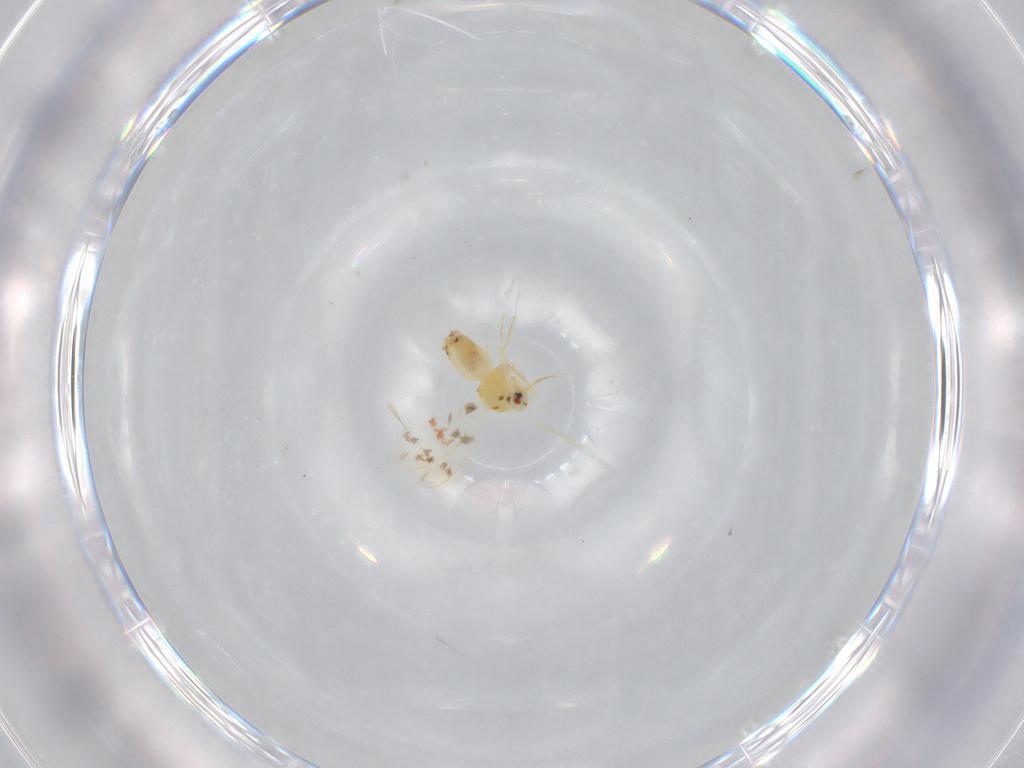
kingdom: Animalia
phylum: Arthropoda
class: Insecta
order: Hemiptera
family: Aleyrodidae
